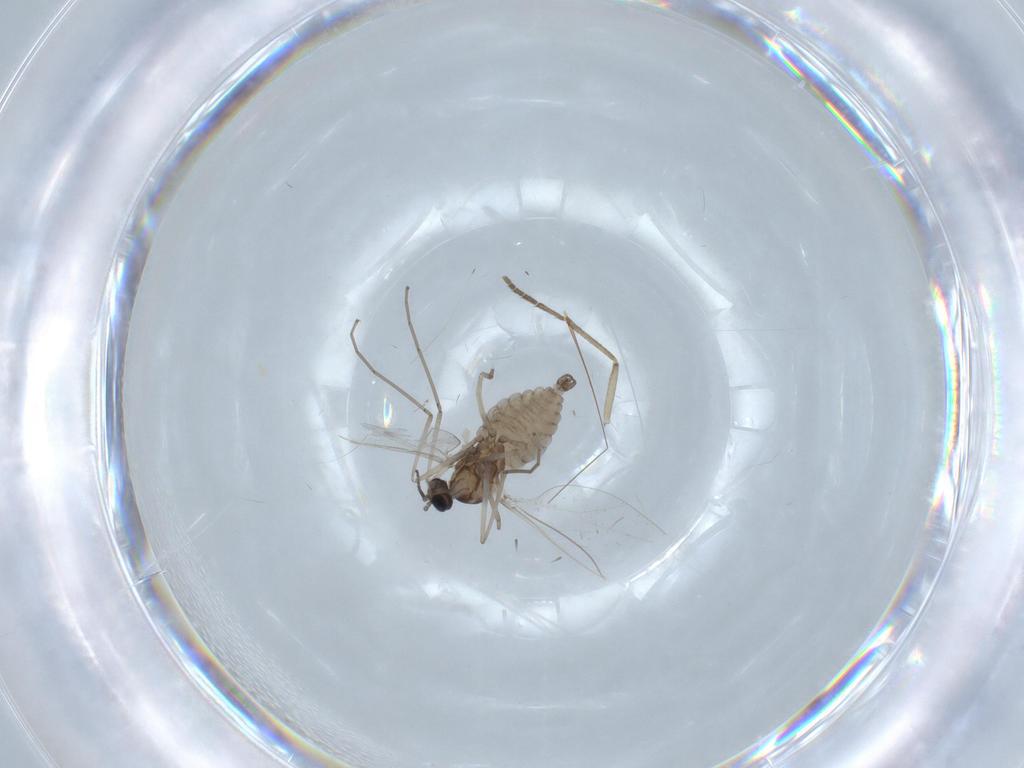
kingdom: Animalia
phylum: Arthropoda
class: Insecta
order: Diptera
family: Cecidomyiidae
